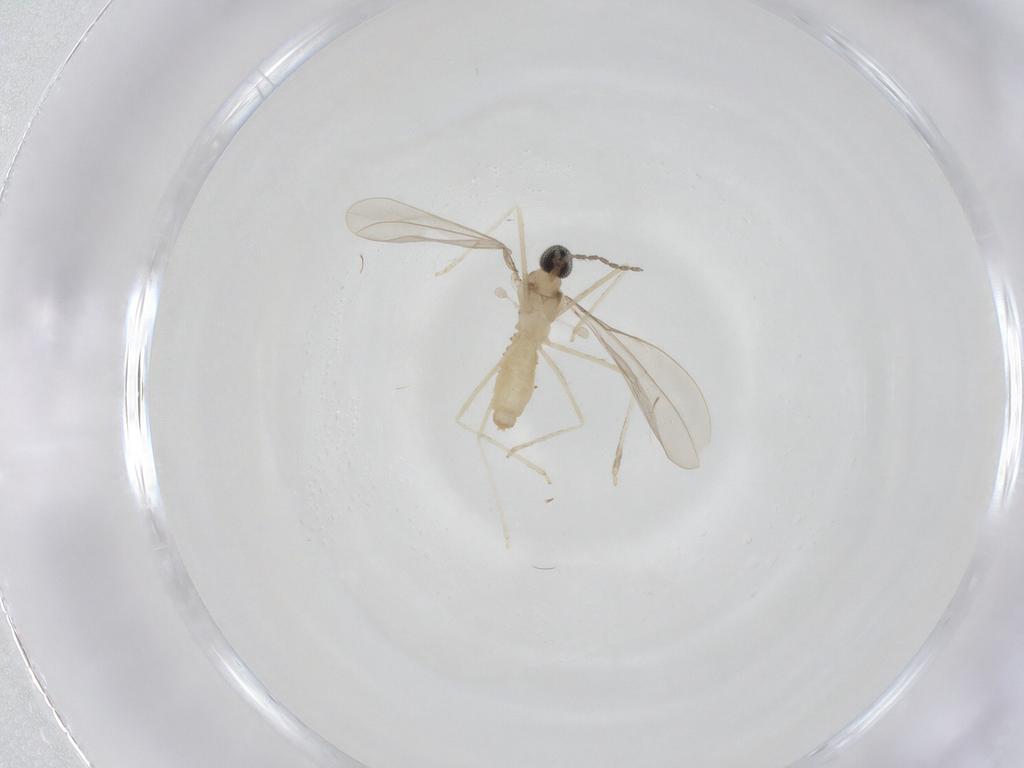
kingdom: Animalia
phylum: Arthropoda
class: Insecta
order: Diptera
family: Cecidomyiidae
